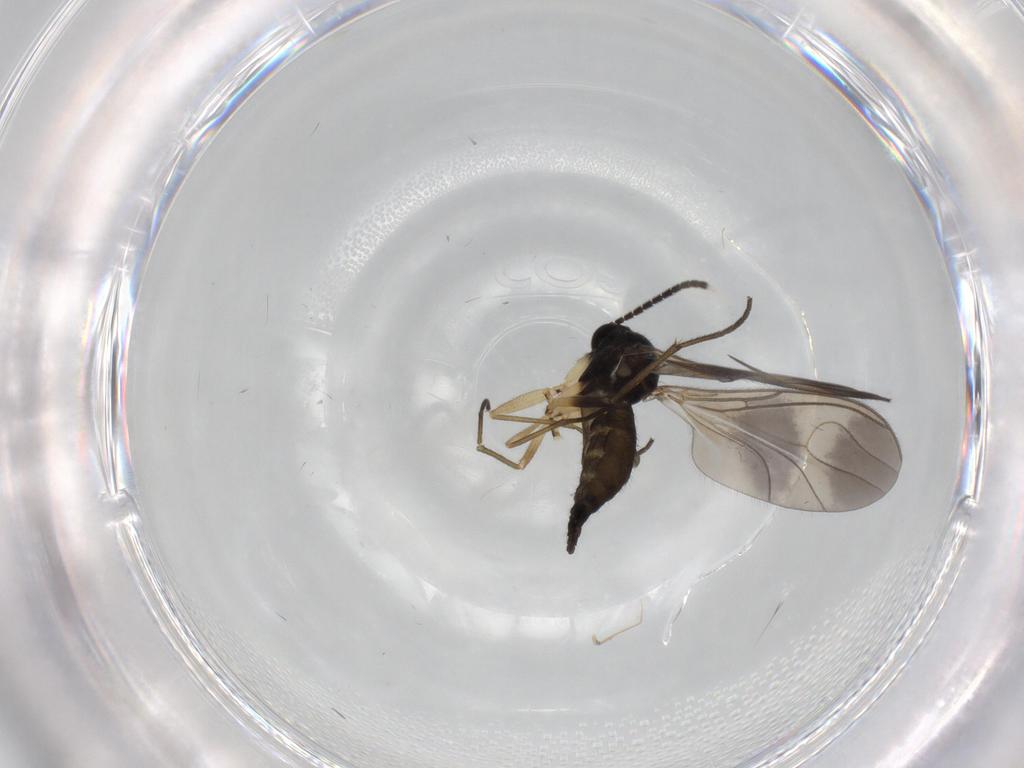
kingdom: Animalia
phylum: Arthropoda
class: Insecta
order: Diptera
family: Sciaridae
